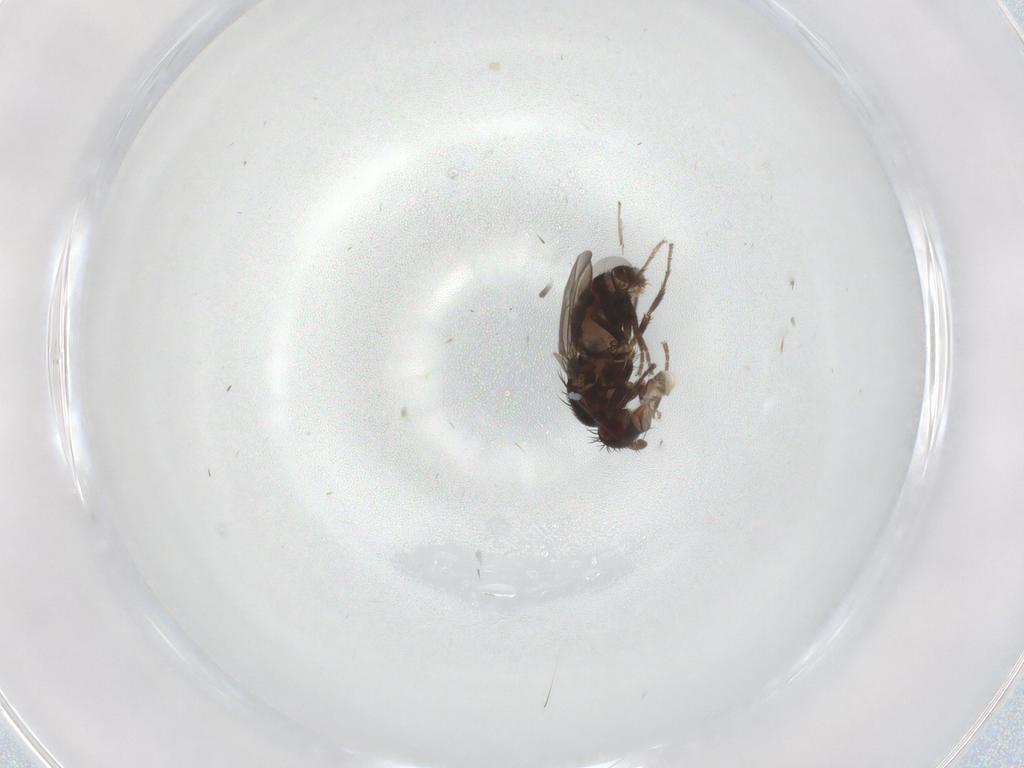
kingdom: Animalia
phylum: Arthropoda
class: Insecta
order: Diptera
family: Sphaeroceridae
